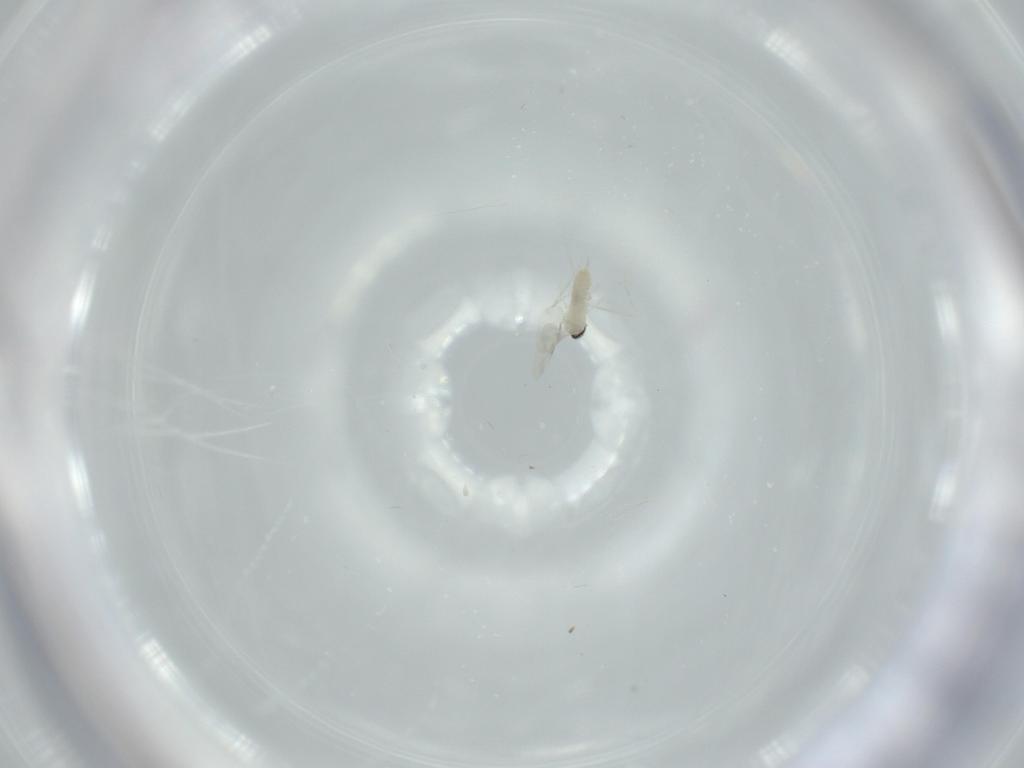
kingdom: Animalia
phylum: Arthropoda
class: Insecta
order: Diptera
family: Cecidomyiidae
